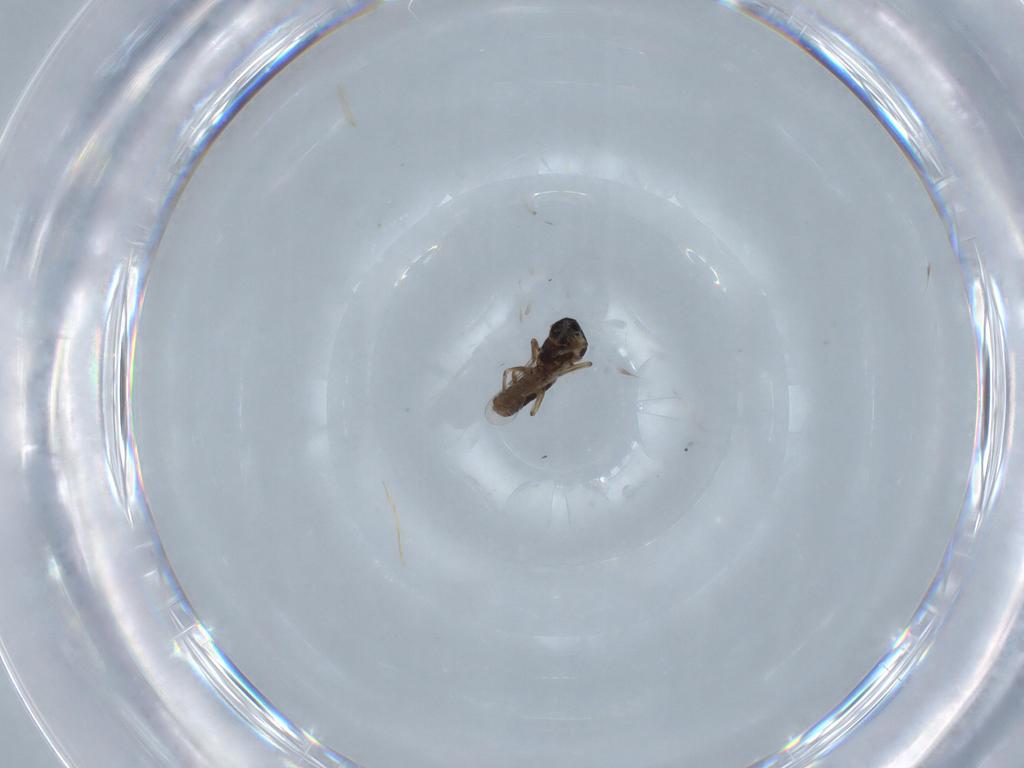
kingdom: Animalia
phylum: Arthropoda
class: Insecta
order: Diptera
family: Ceratopogonidae
